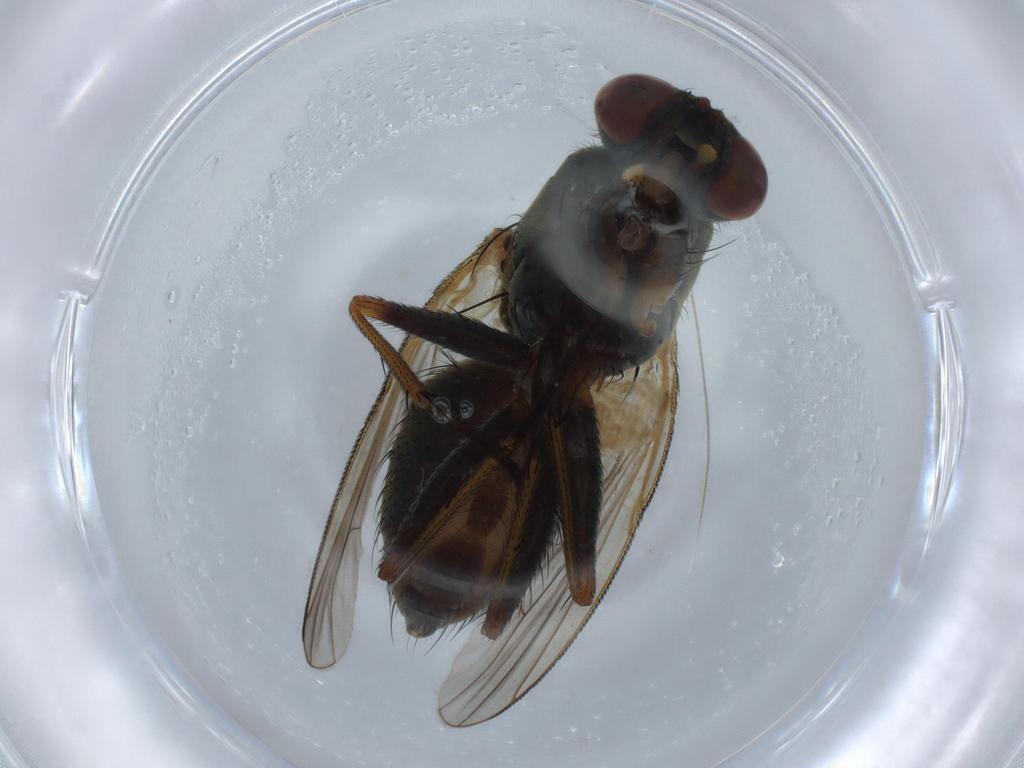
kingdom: Animalia
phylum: Arthropoda
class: Insecta
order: Diptera
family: Muscidae
